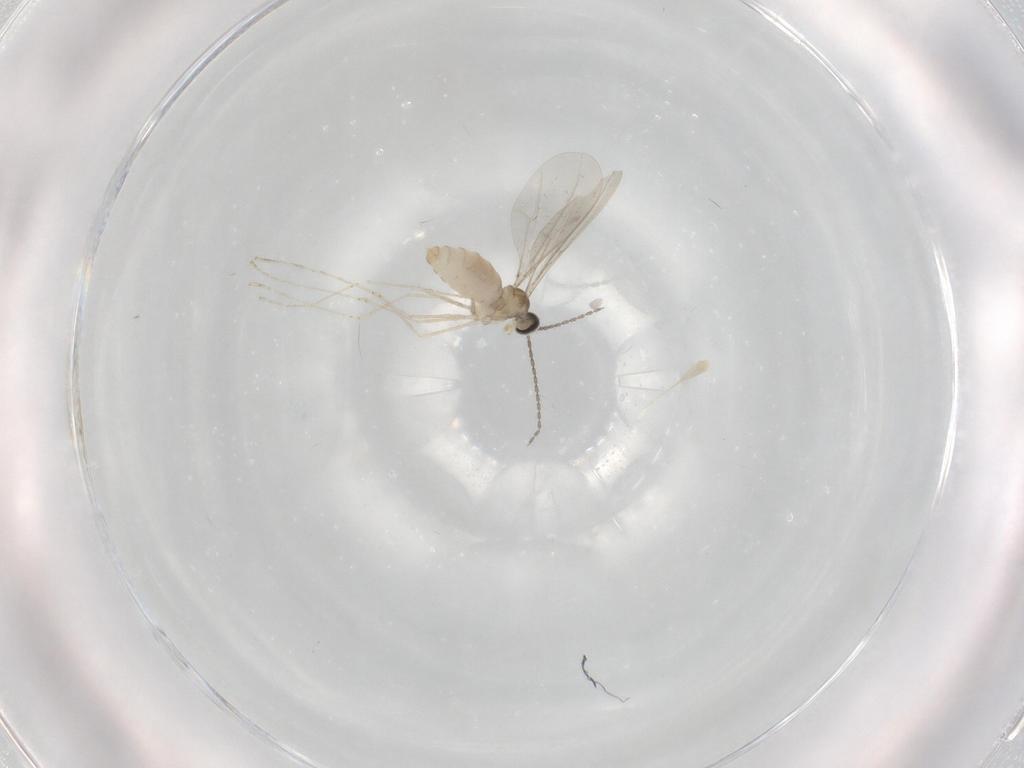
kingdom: Animalia
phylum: Arthropoda
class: Insecta
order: Diptera
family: Cecidomyiidae
